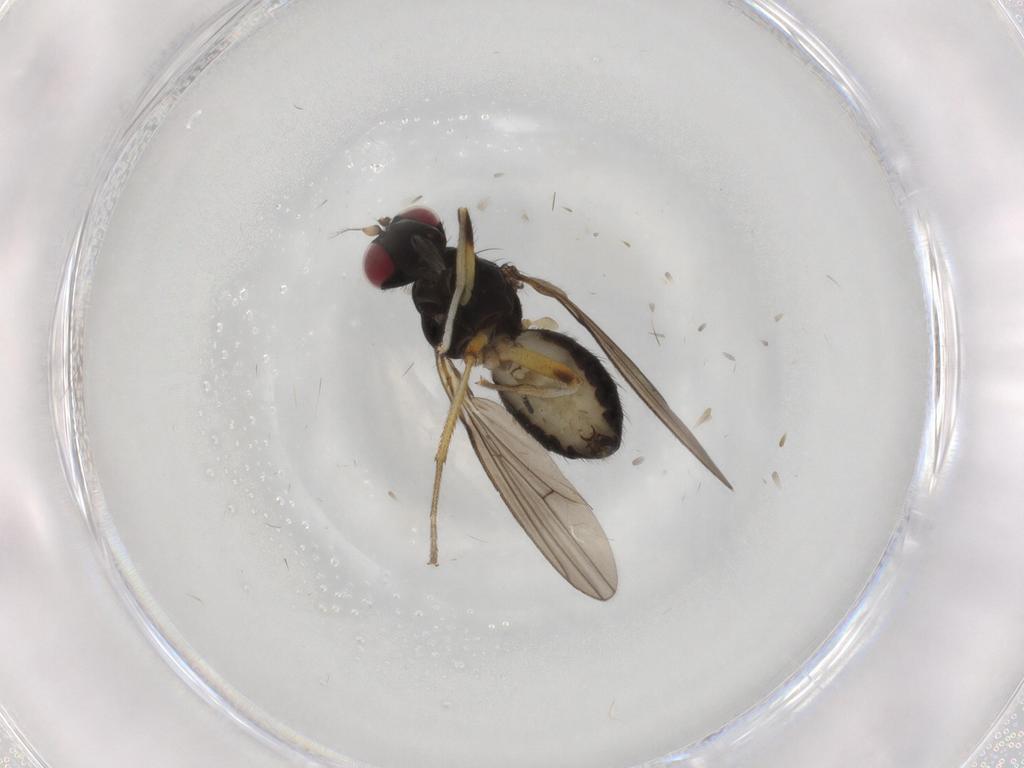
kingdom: Animalia
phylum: Arthropoda
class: Insecta
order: Diptera
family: Lauxaniidae
